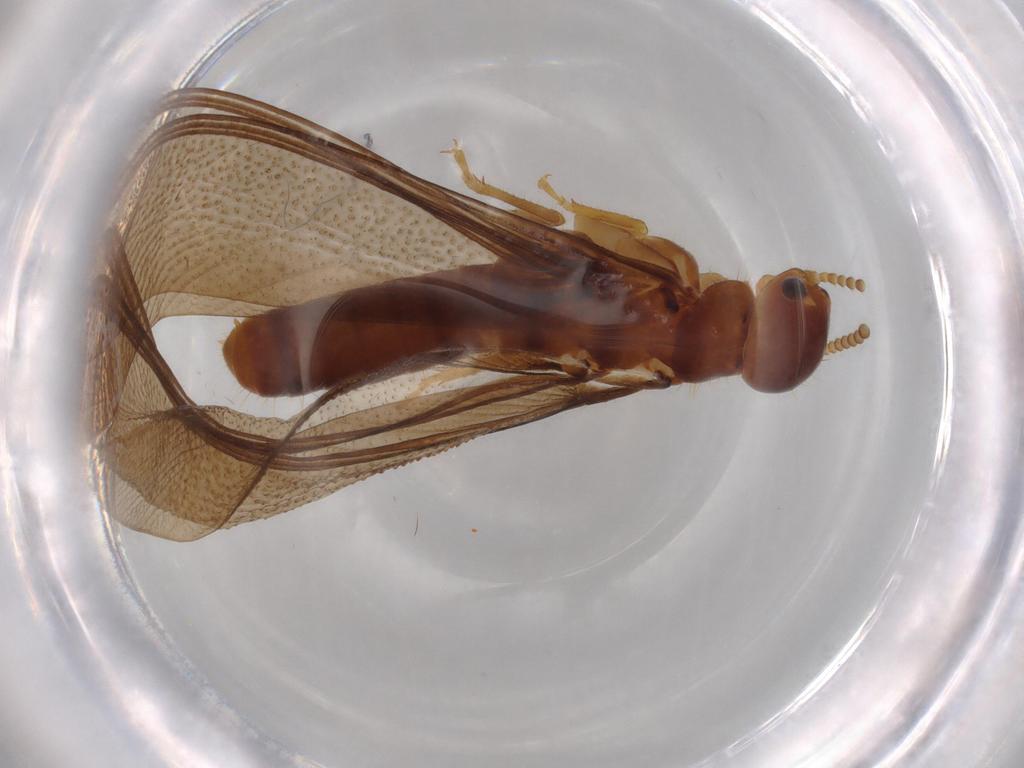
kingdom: Animalia
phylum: Arthropoda
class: Insecta
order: Blattodea
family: Kalotermitidae
